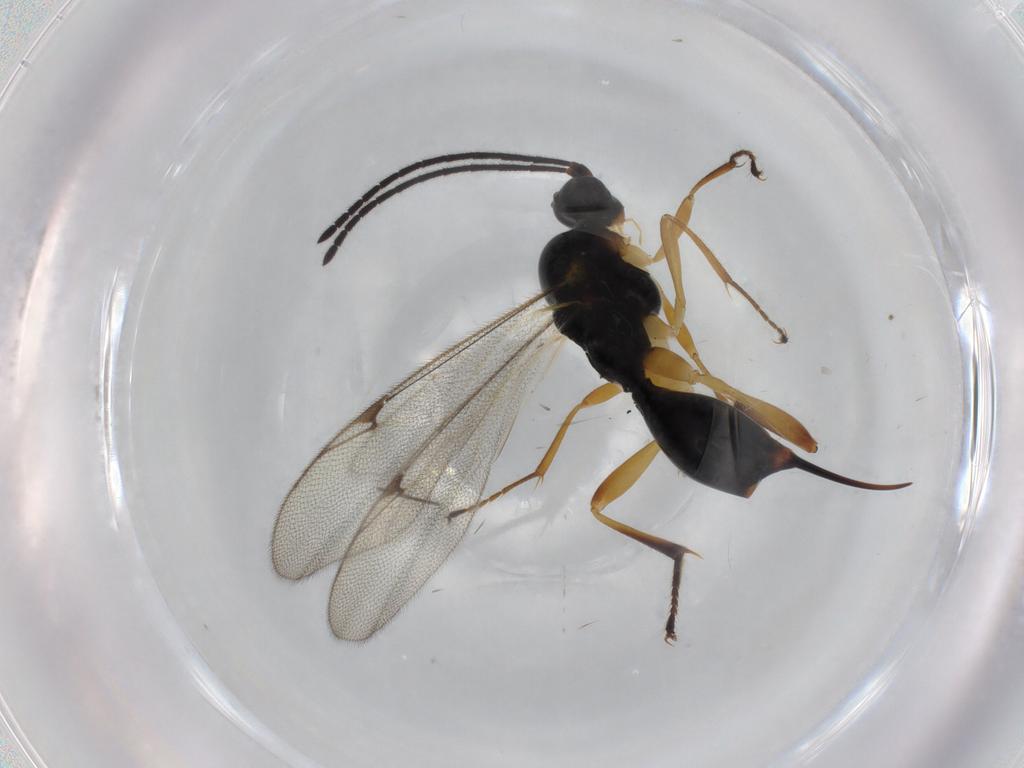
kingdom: Animalia
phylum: Arthropoda
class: Insecta
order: Hymenoptera
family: Proctotrupidae
